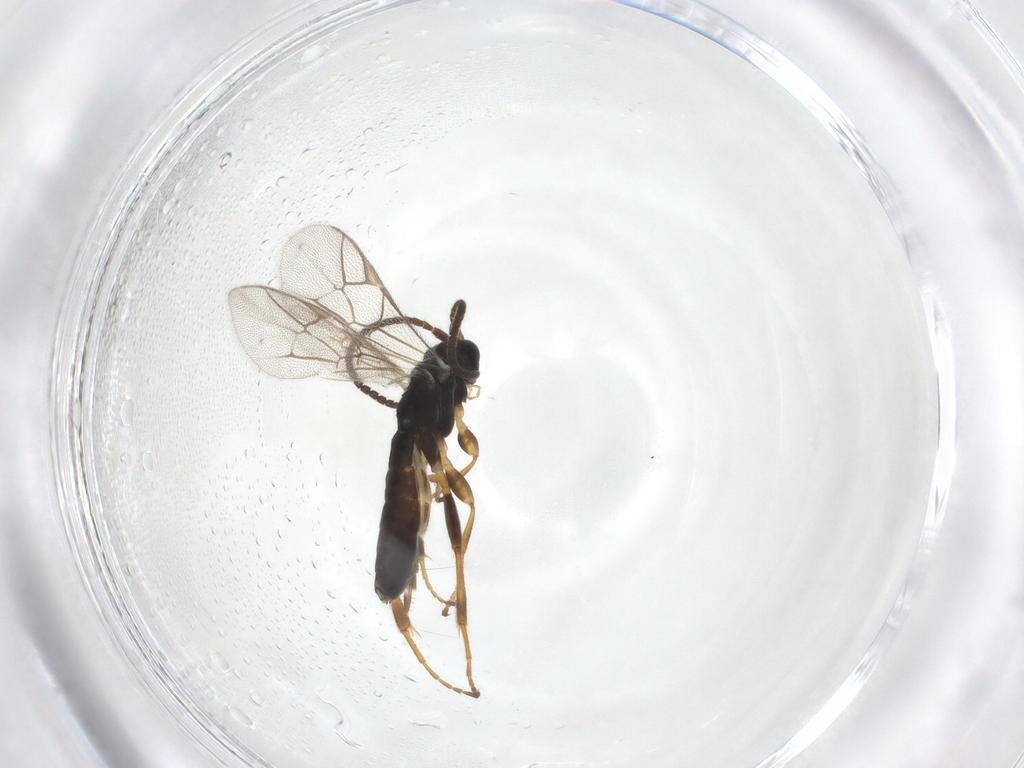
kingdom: Animalia
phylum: Arthropoda
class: Insecta
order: Hymenoptera
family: Ichneumonidae
